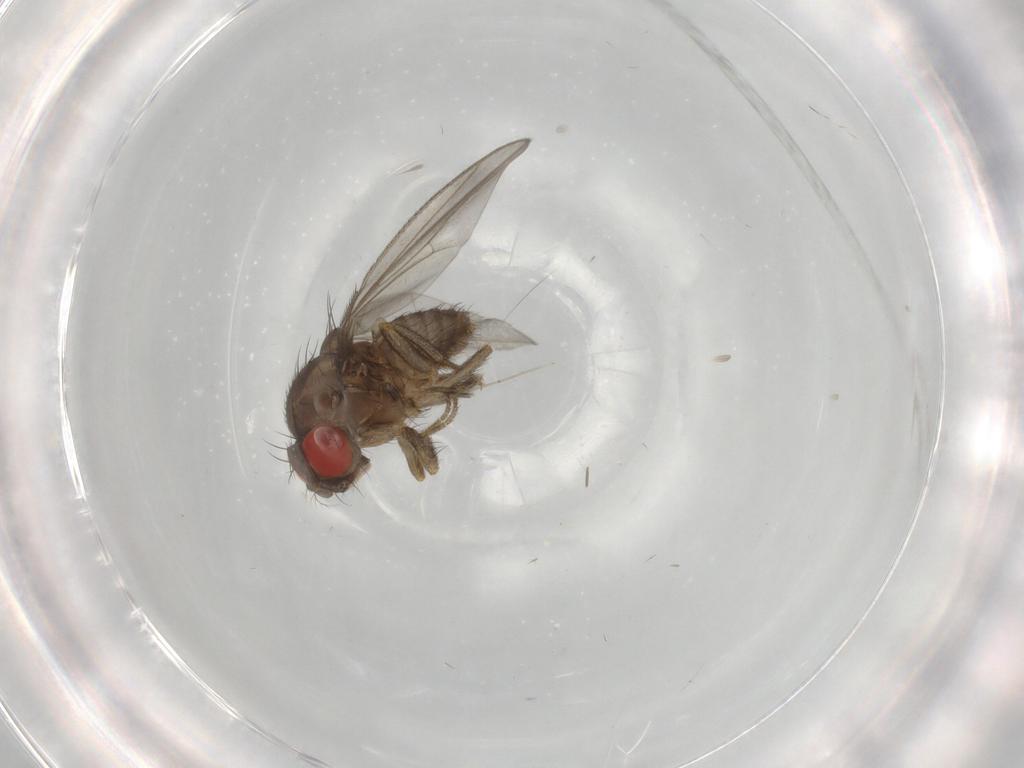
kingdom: Animalia
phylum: Arthropoda
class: Insecta
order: Diptera
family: Drosophilidae
